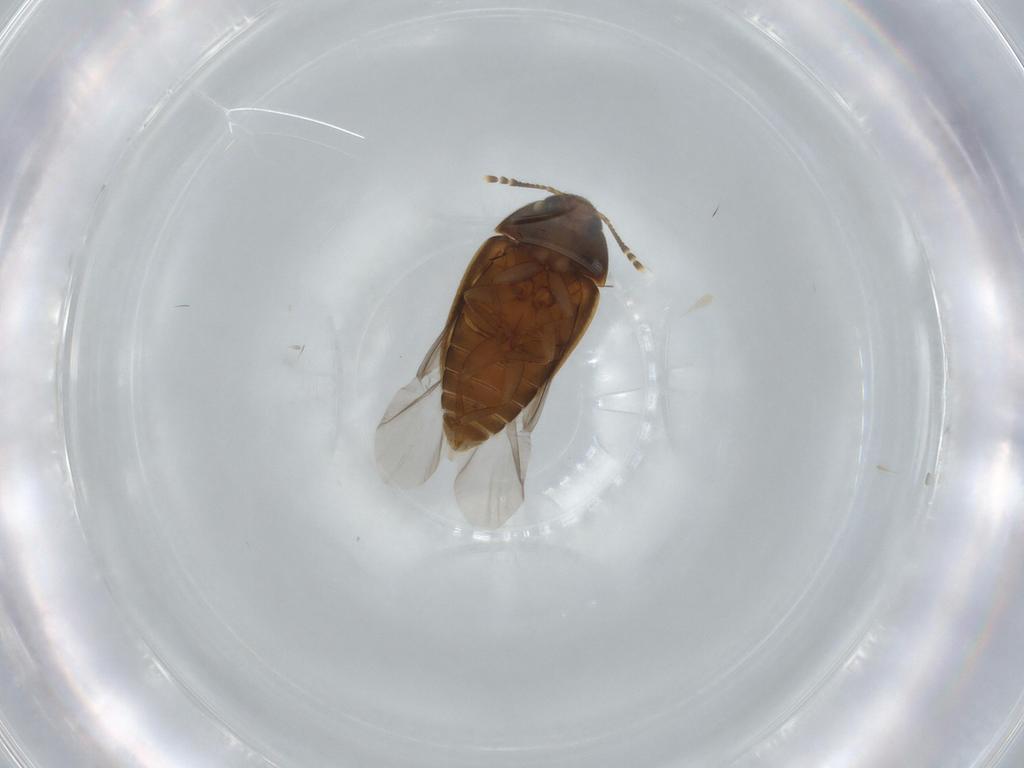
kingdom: Animalia
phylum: Arthropoda
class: Insecta
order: Coleoptera
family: Mycetophagidae
